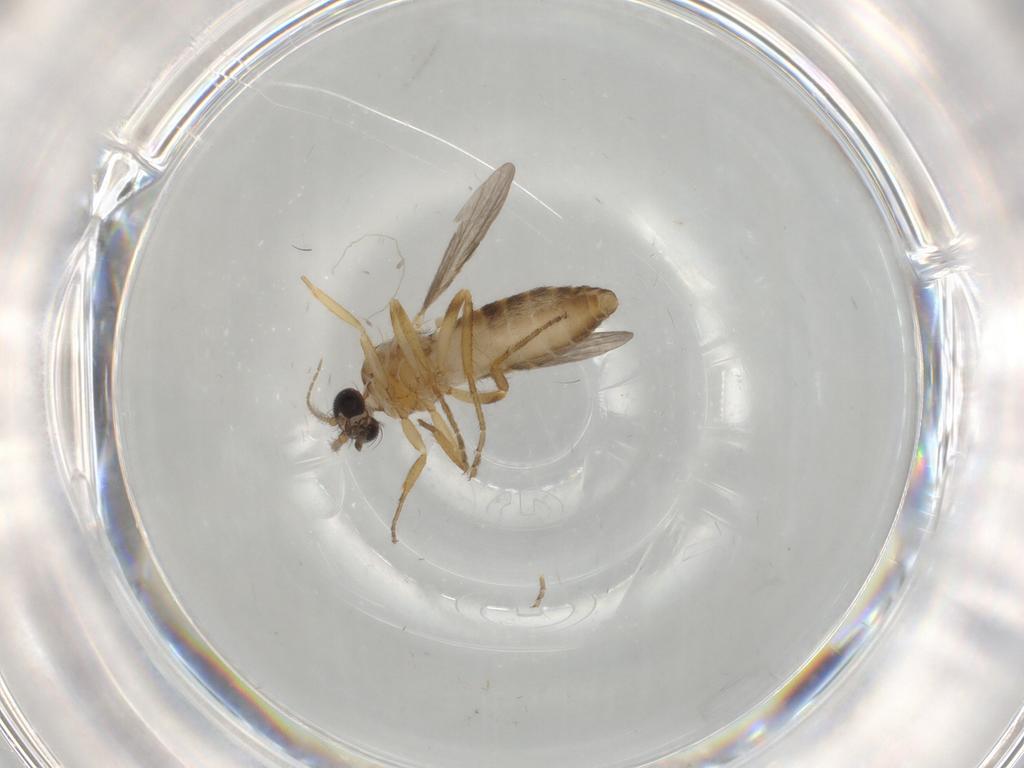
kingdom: Animalia
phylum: Arthropoda
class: Insecta
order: Diptera
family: Ceratopogonidae
